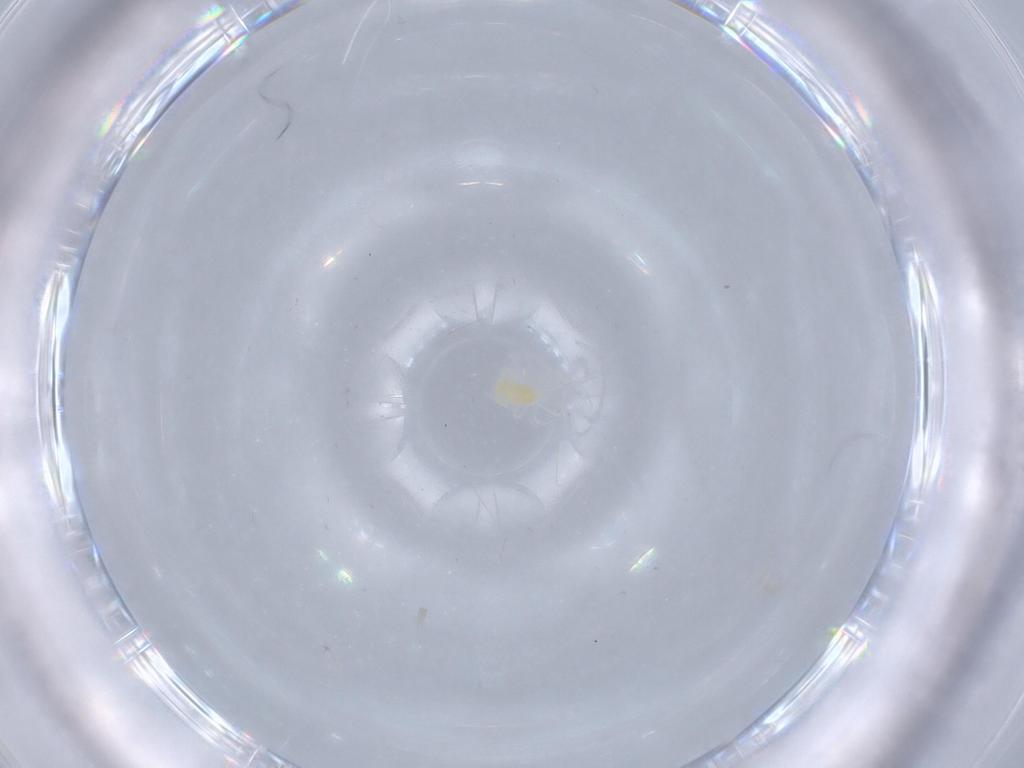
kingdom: Animalia
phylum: Arthropoda
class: Arachnida
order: Trombidiformes
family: Eupodidae
